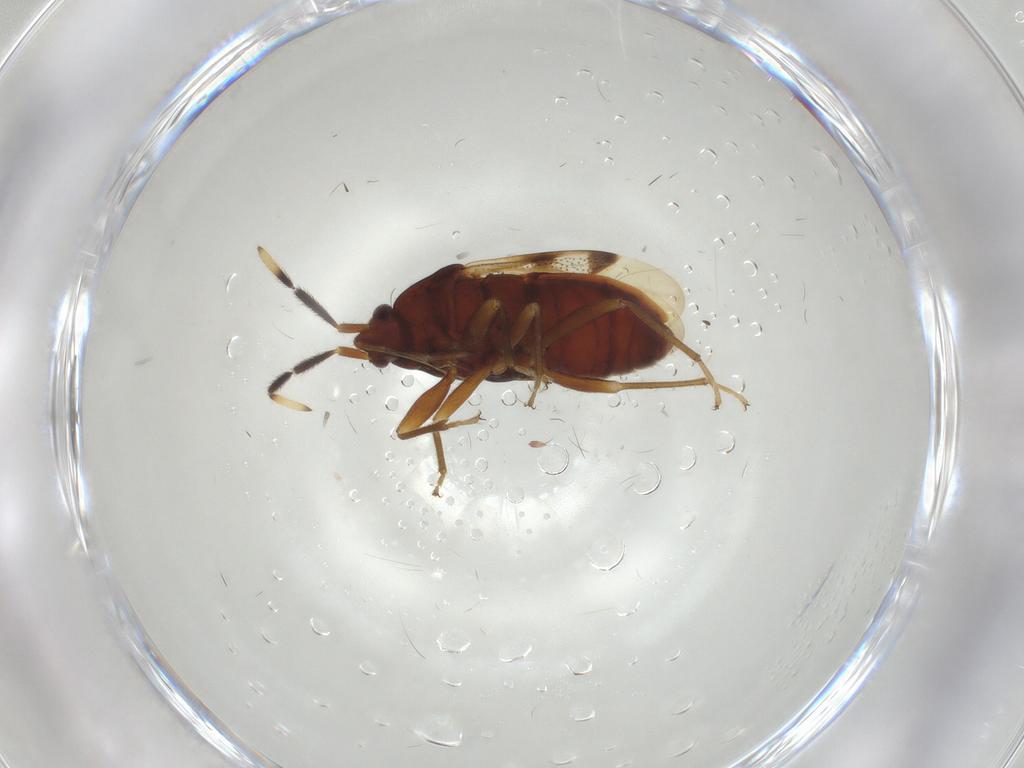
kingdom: Animalia
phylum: Arthropoda
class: Insecta
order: Hemiptera
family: Rhyparochromidae
